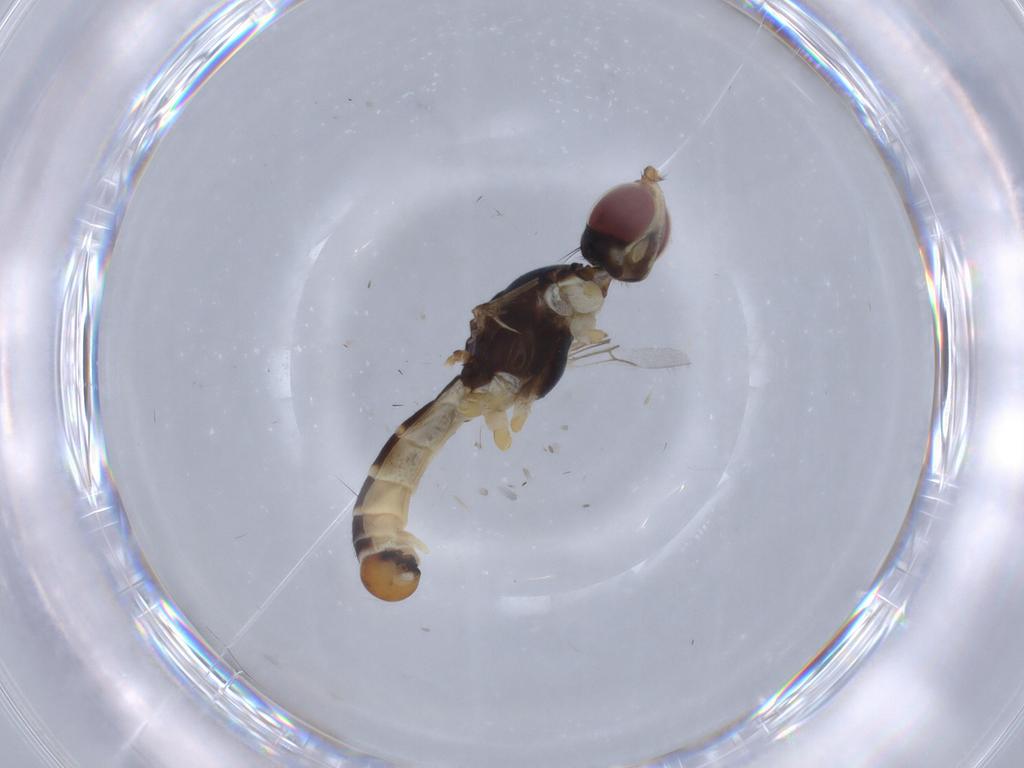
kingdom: Animalia
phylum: Arthropoda
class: Insecta
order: Diptera
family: Micropezidae
